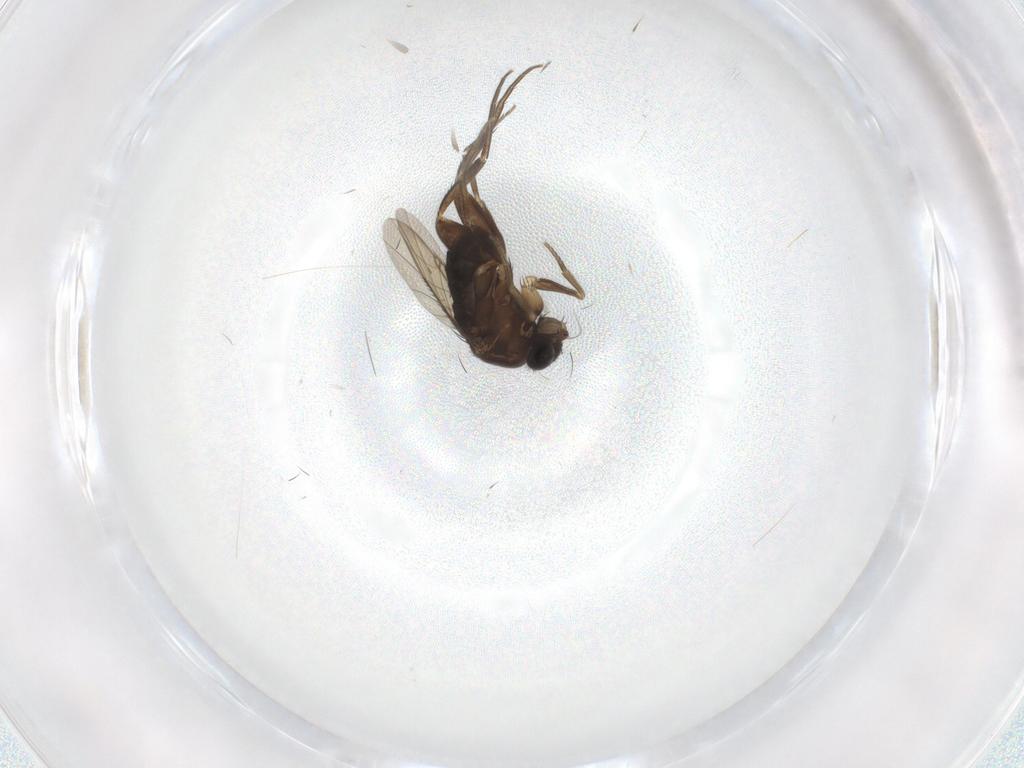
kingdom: Animalia
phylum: Arthropoda
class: Insecta
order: Diptera
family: Phoridae
